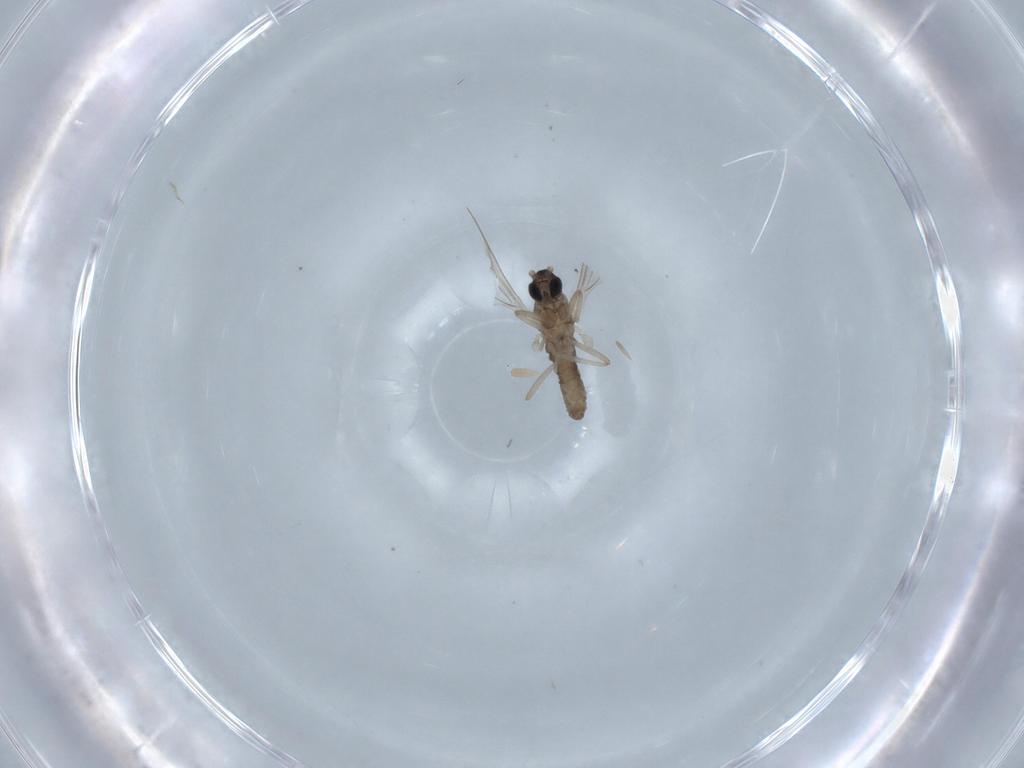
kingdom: Animalia
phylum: Arthropoda
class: Insecta
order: Diptera
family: Cecidomyiidae
